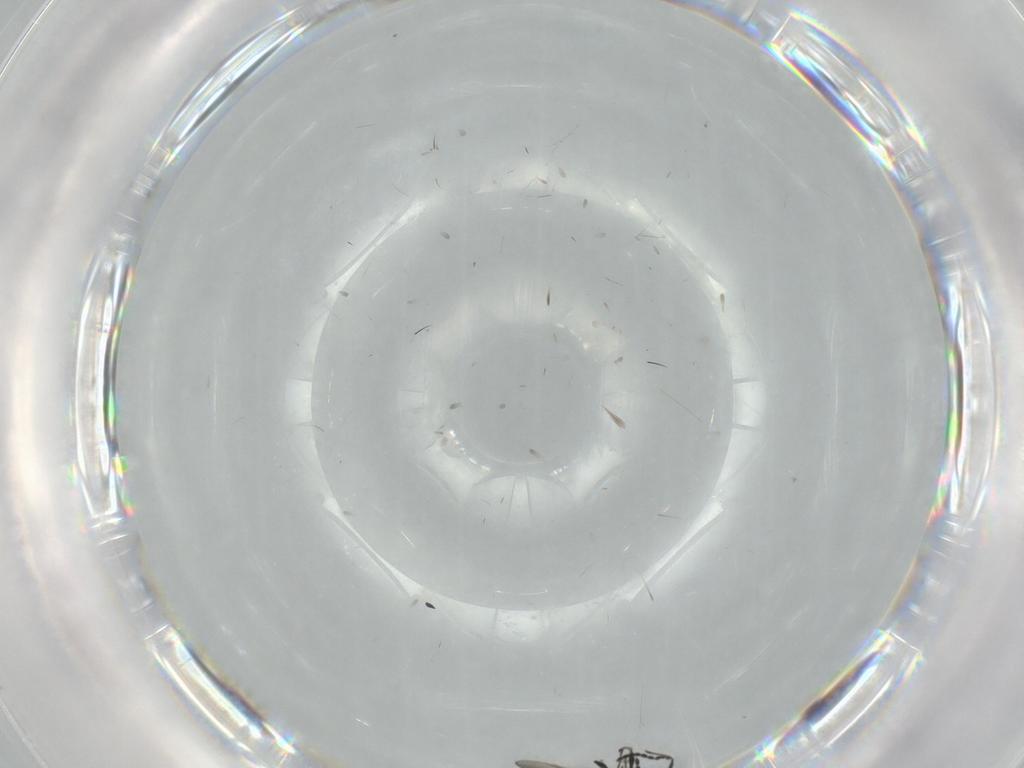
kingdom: Animalia
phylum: Arthropoda
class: Insecta
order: Hymenoptera
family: Platygastridae
